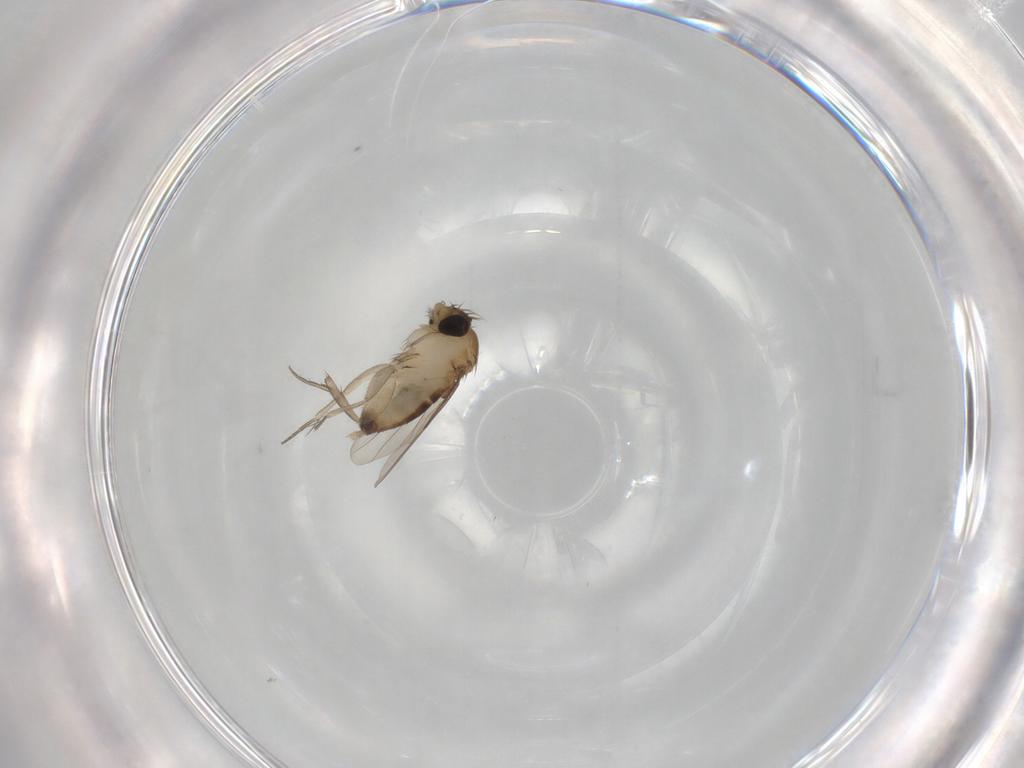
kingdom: Animalia
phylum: Arthropoda
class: Insecta
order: Diptera
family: Phoridae
